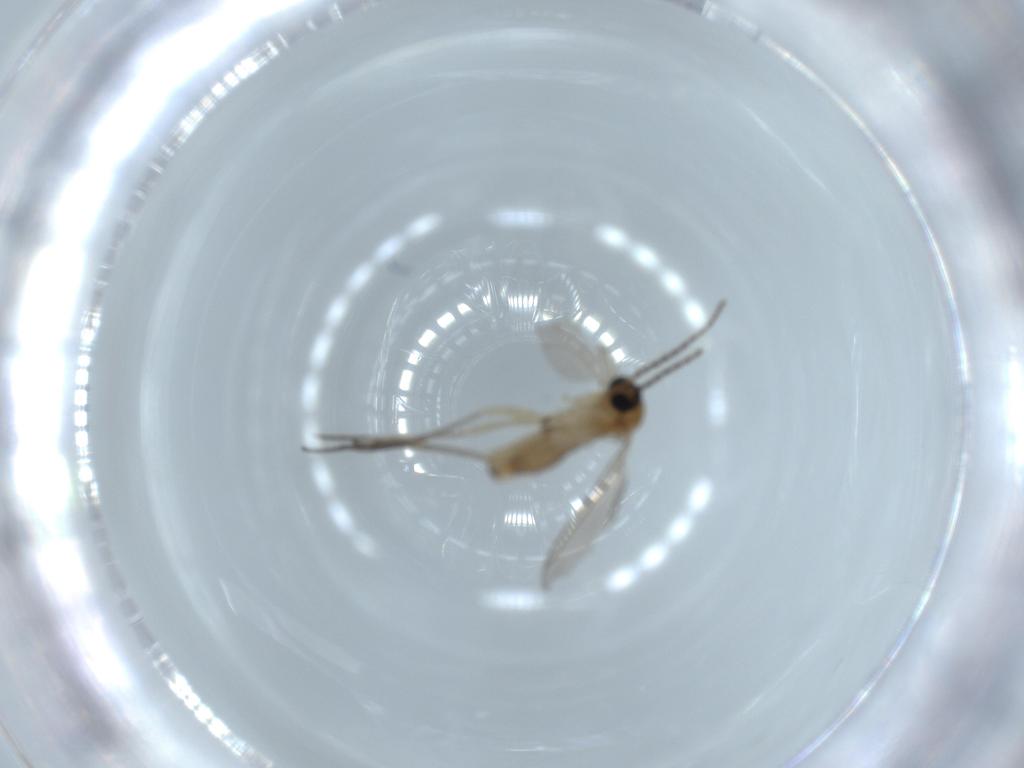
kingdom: Animalia
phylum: Arthropoda
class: Insecta
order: Diptera
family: Sciaridae
